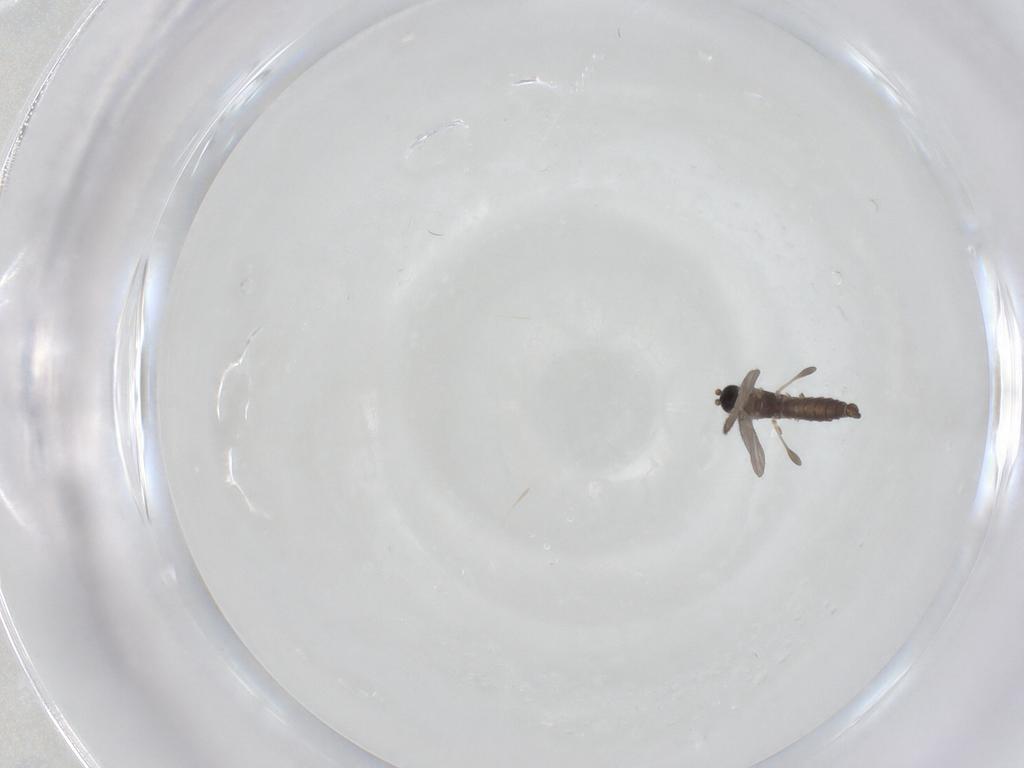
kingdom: Animalia
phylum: Arthropoda
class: Insecta
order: Diptera
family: Sciaridae
